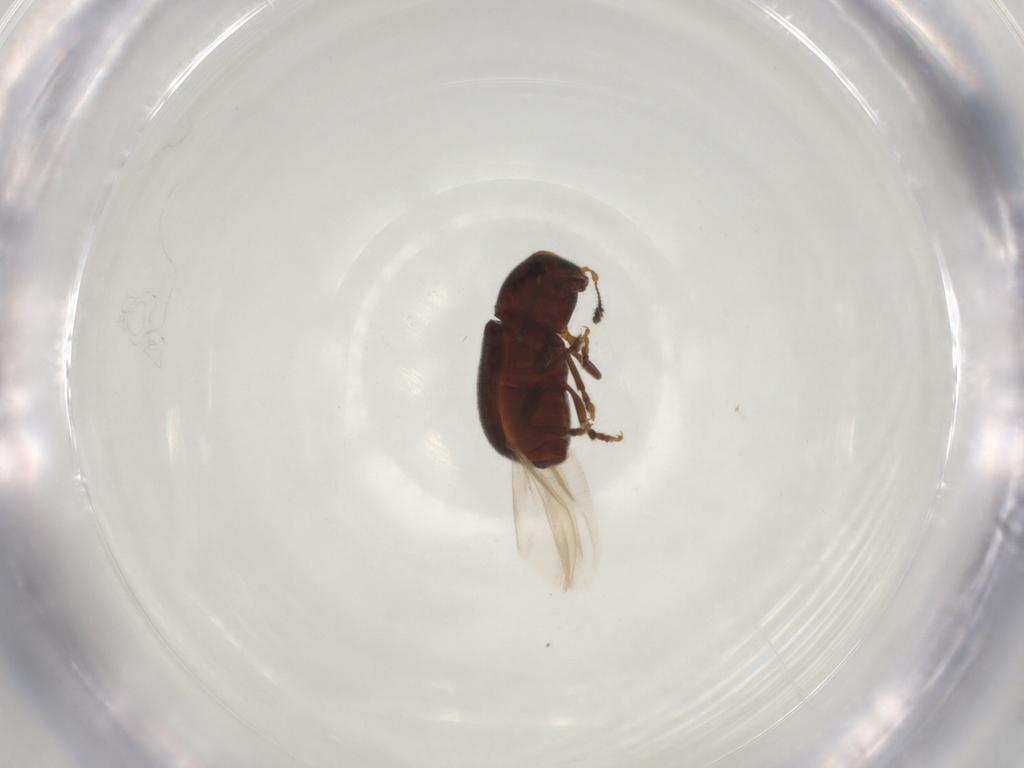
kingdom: Animalia
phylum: Arthropoda
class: Insecta
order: Coleoptera
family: Anthribidae
